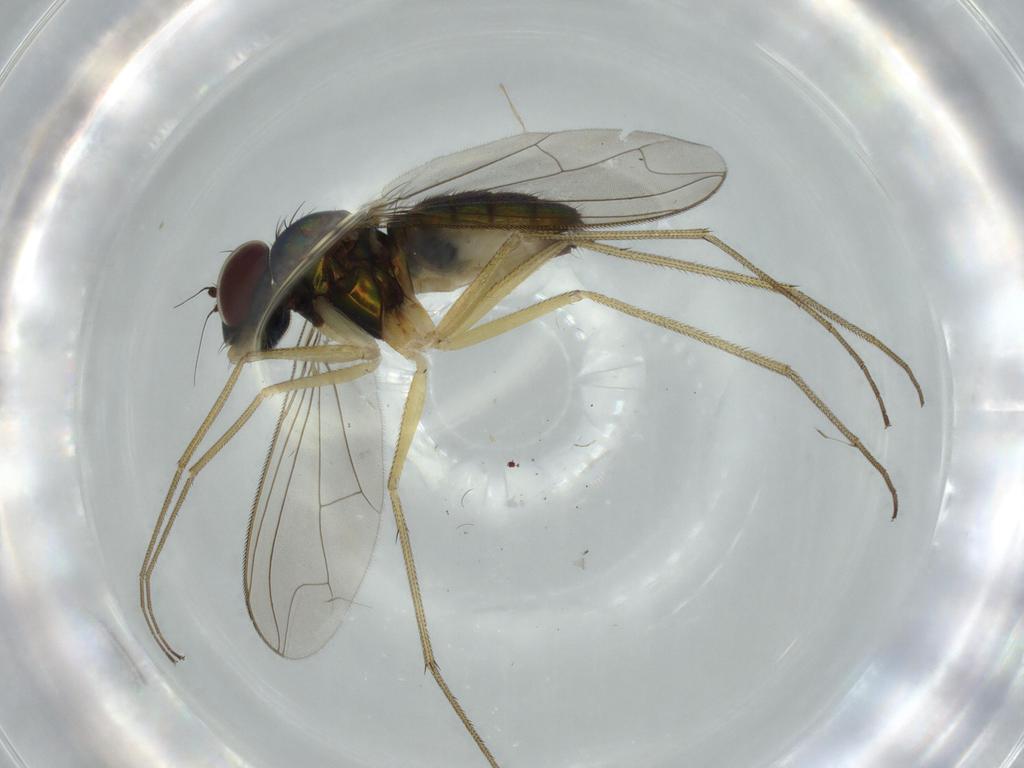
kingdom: Animalia
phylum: Arthropoda
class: Insecta
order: Diptera
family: Dolichopodidae
